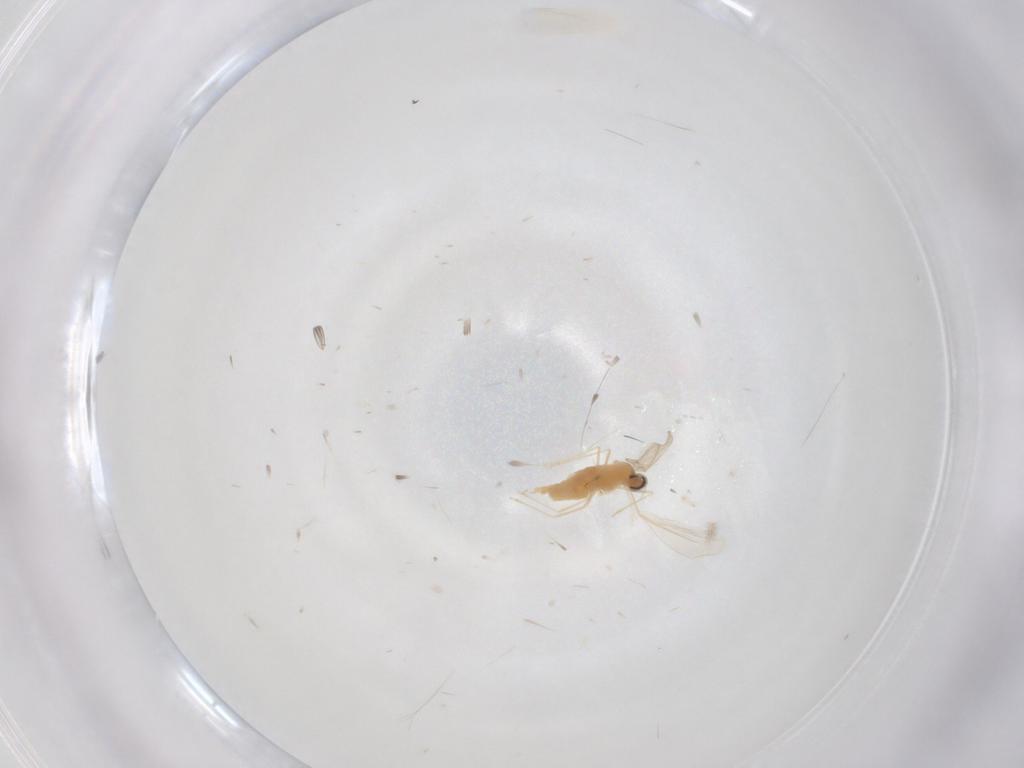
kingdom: Animalia
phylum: Arthropoda
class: Insecta
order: Diptera
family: Cecidomyiidae
